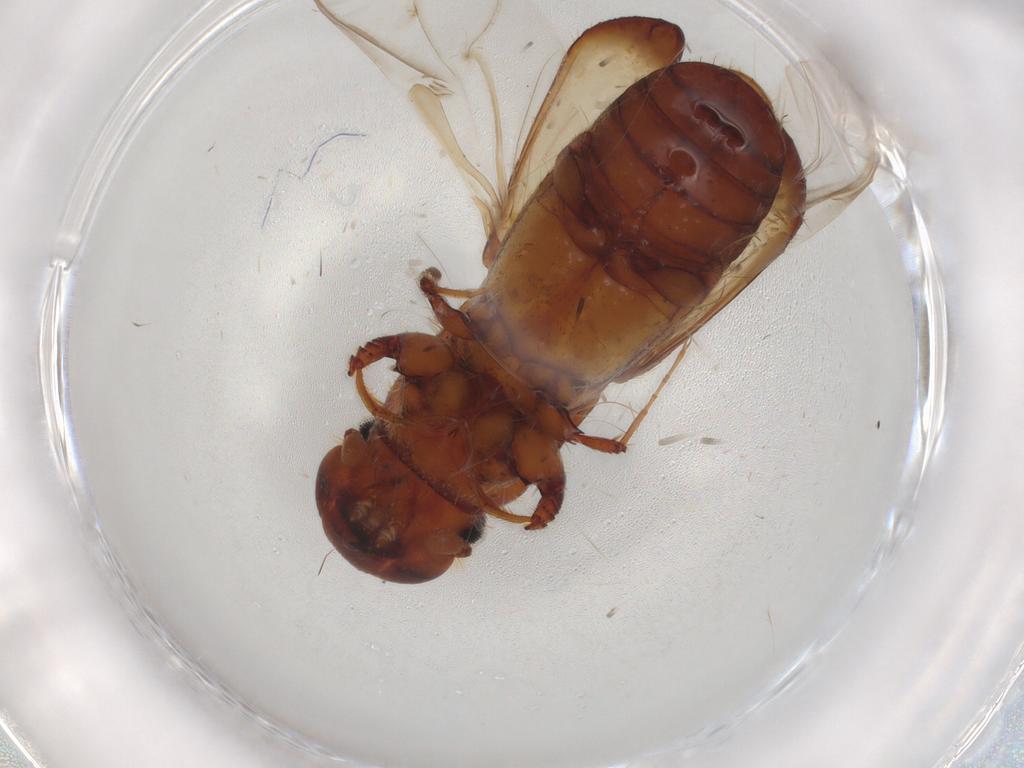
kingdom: Animalia
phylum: Arthropoda
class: Insecta
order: Coleoptera
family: Curculionidae
